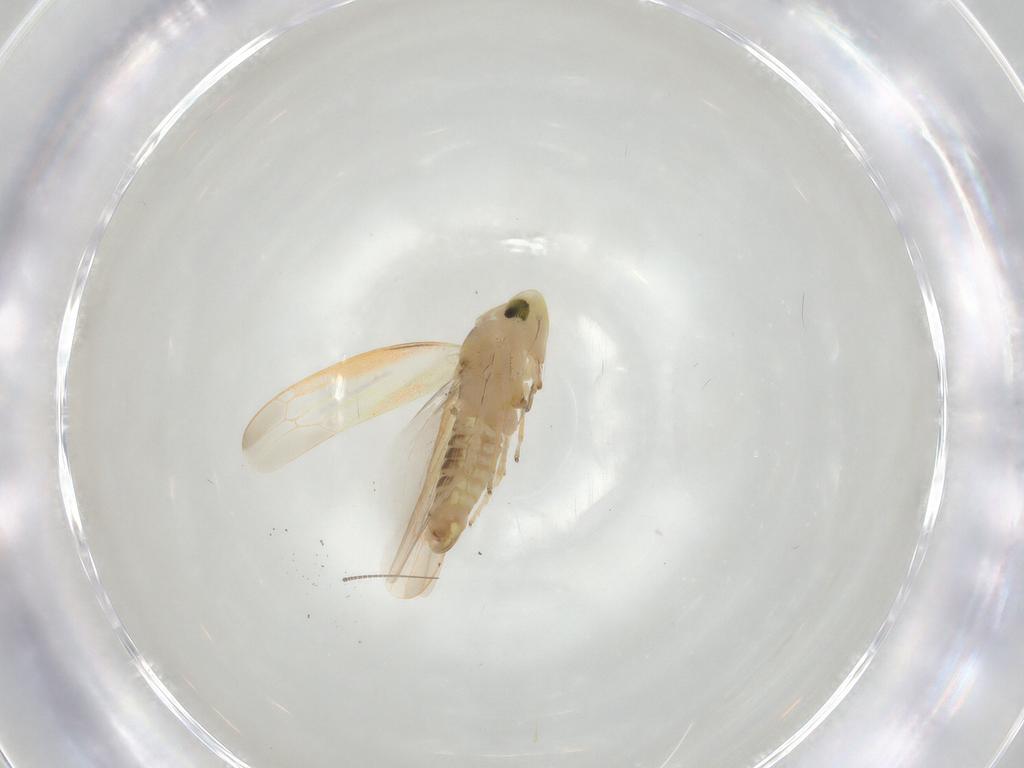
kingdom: Animalia
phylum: Arthropoda
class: Insecta
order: Hemiptera
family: Cicadellidae
